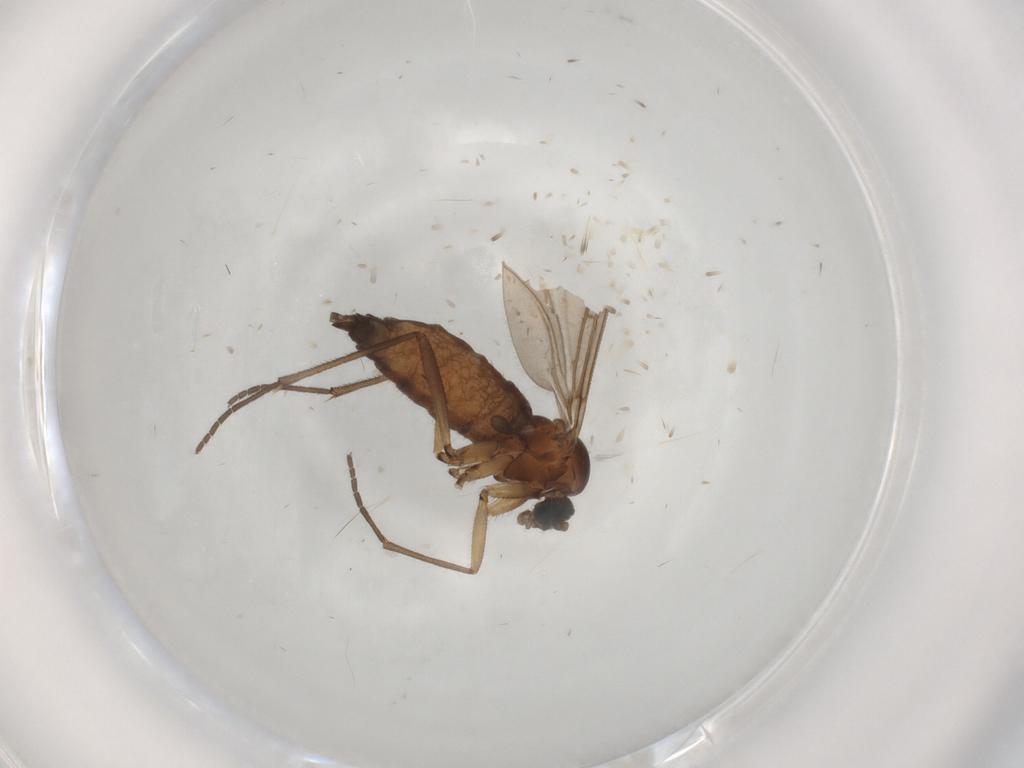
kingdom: Animalia
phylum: Arthropoda
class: Insecta
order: Diptera
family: Sciaridae
